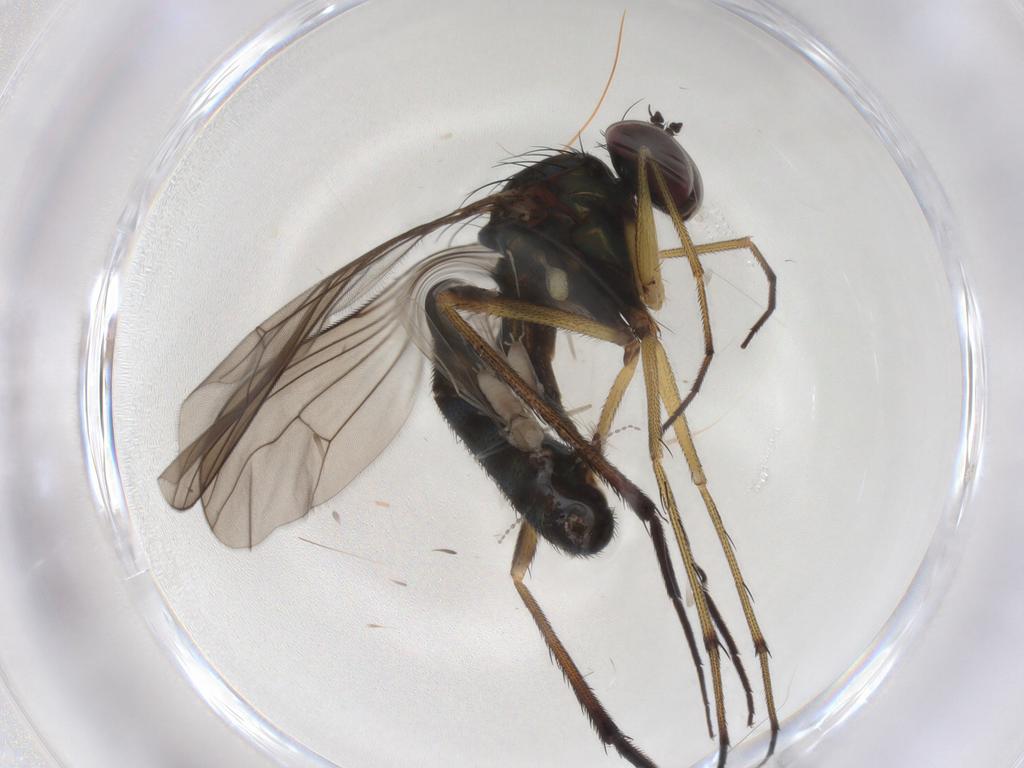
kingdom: Animalia
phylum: Arthropoda
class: Insecta
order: Diptera
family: Dolichopodidae
